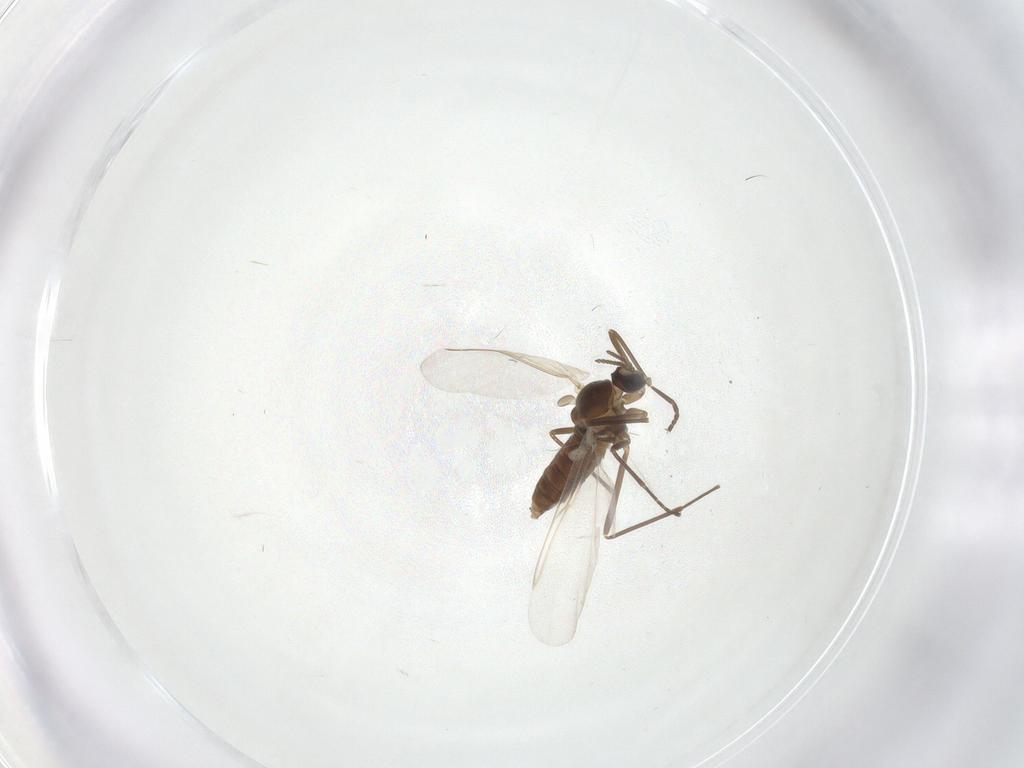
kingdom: Animalia
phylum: Arthropoda
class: Insecta
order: Diptera
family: Cecidomyiidae
